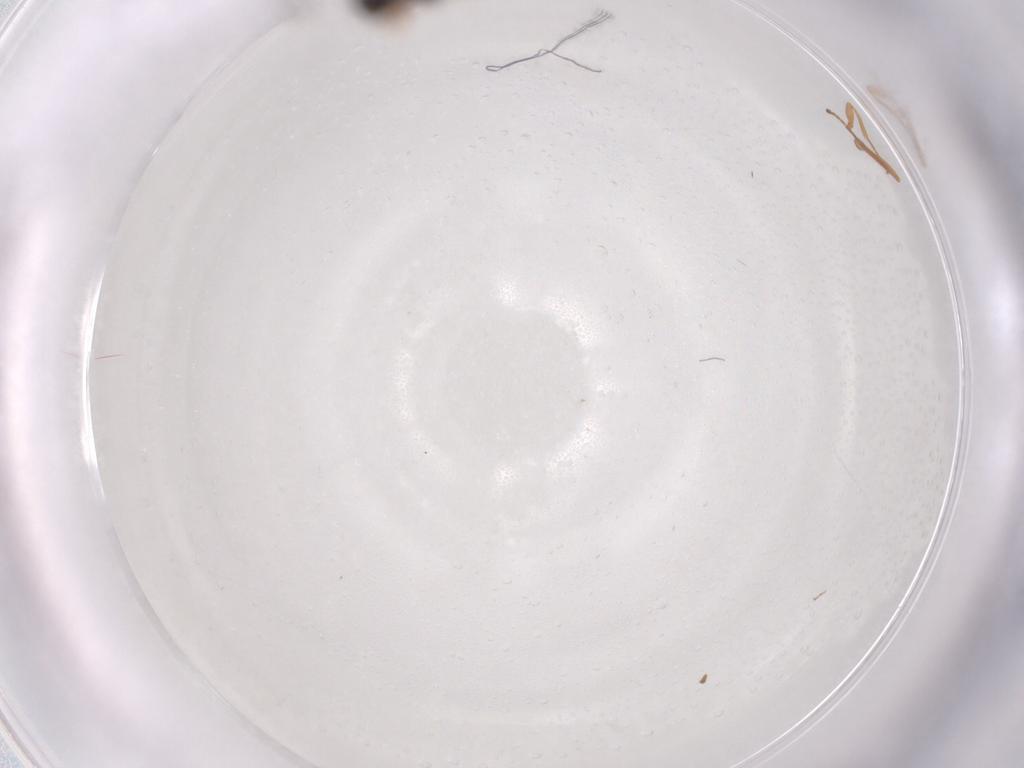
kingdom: Animalia
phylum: Arthropoda
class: Insecta
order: Hymenoptera
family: Braconidae
